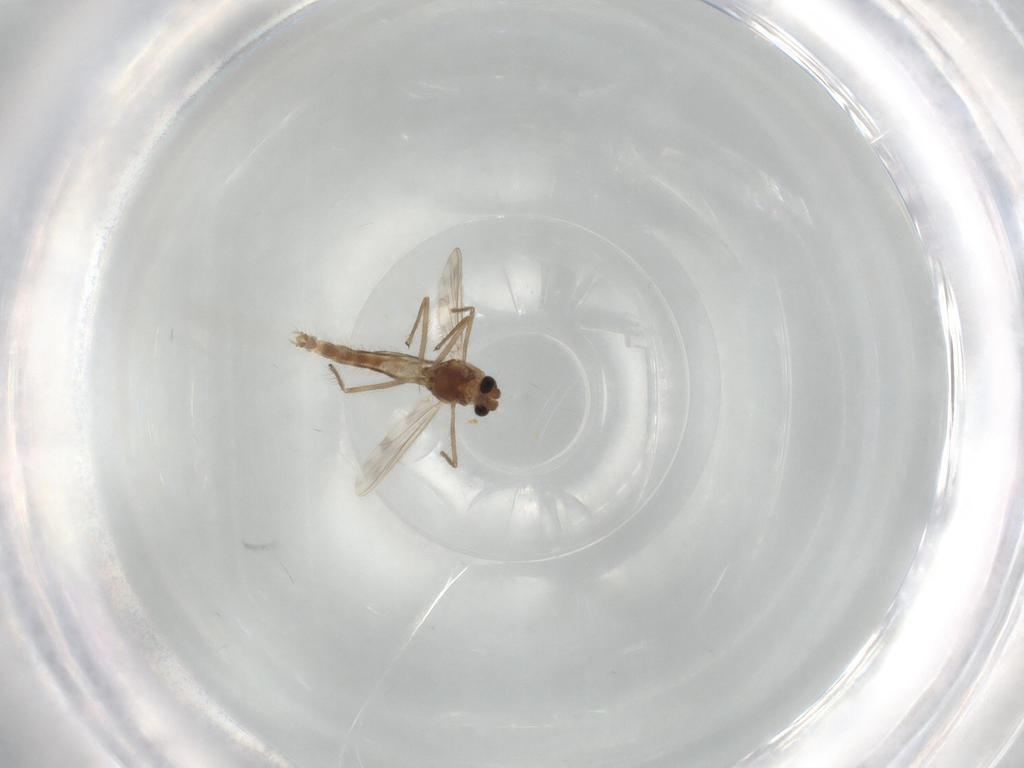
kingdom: Animalia
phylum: Arthropoda
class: Insecta
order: Diptera
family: Chironomidae
